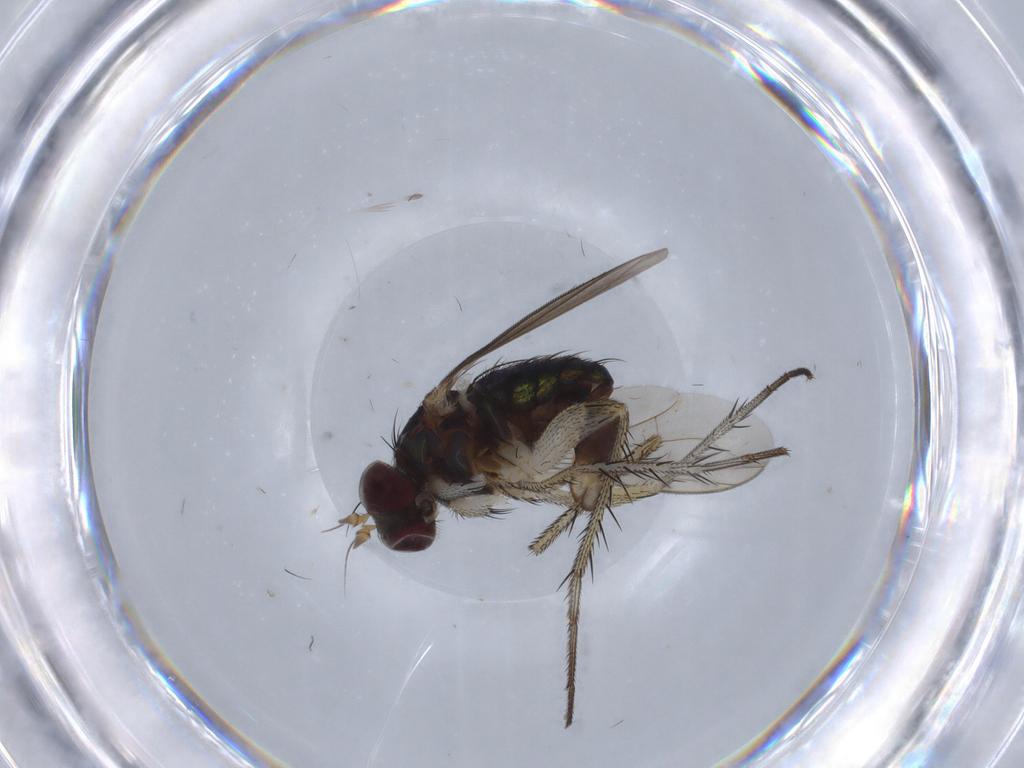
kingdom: Animalia
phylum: Arthropoda
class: Insecta
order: Diptera
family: Dolichopodidae
